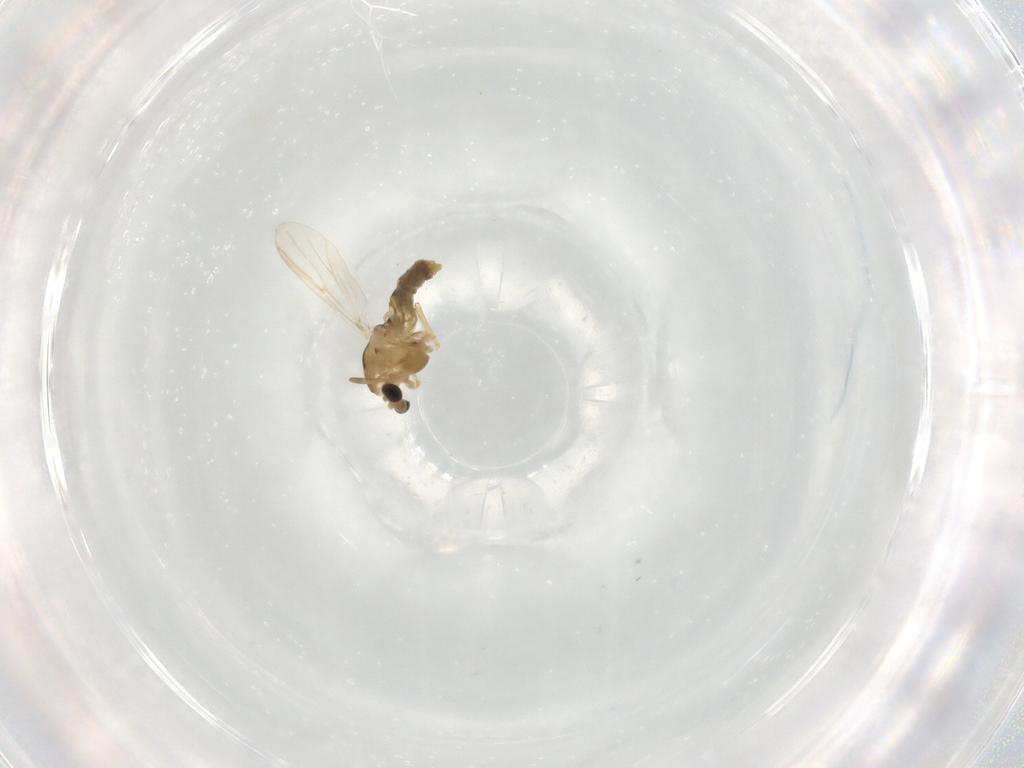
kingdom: Animalia
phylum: Arthropoda
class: Insecta
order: Diptera
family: Chironomidae
